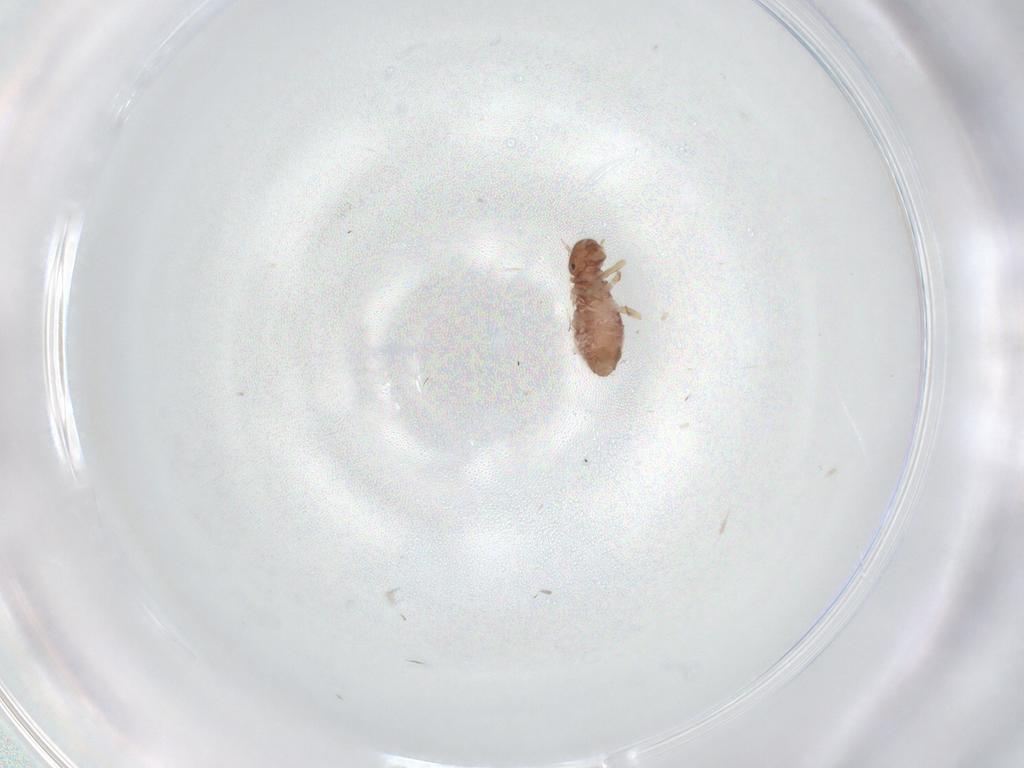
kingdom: Animalia
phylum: Arthropoda
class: Insecta
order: Psocodea
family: Archipsocidae
